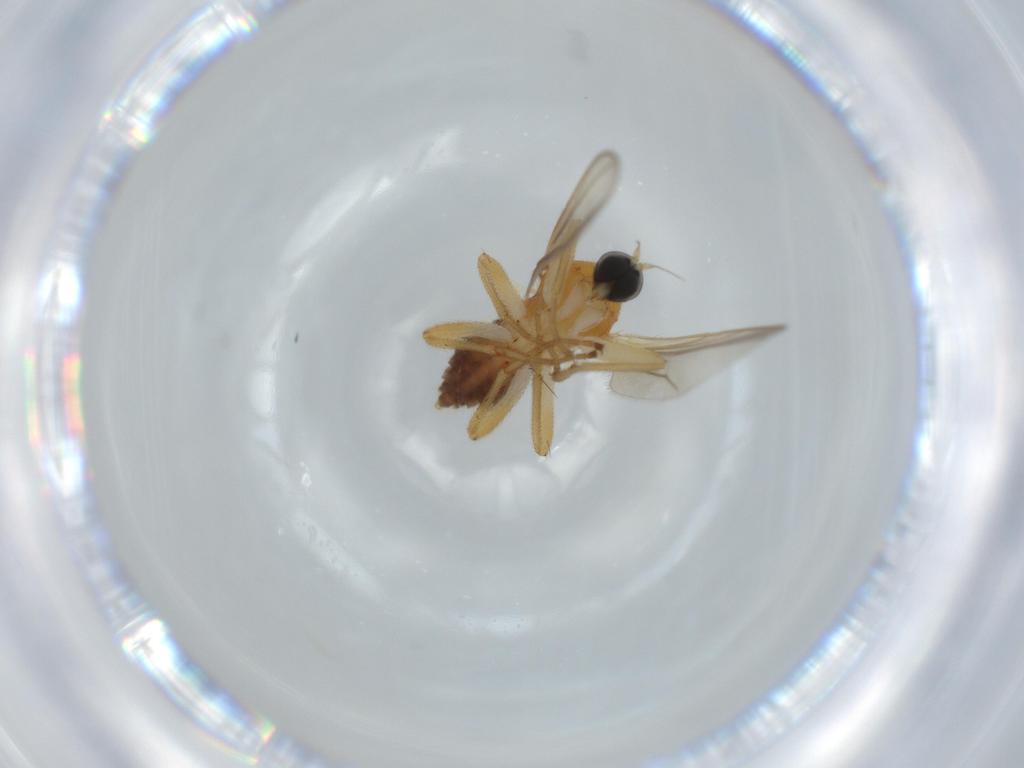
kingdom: Animalia
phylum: Arthropoda
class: Insecta
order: Diptera
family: Hybotidae
